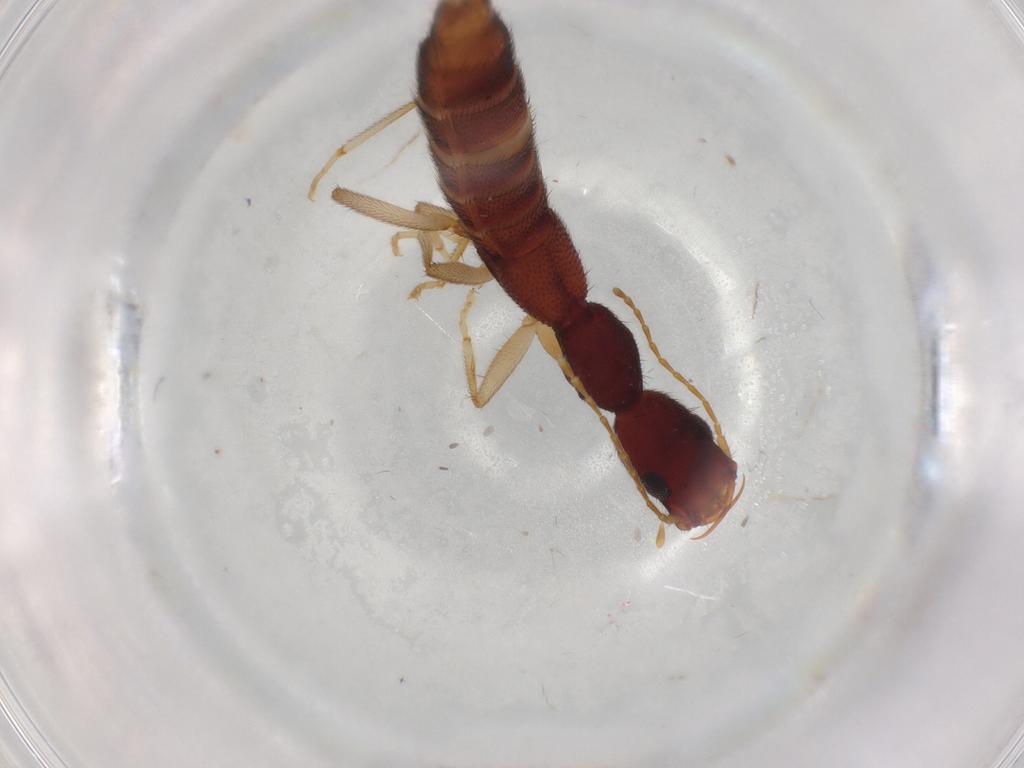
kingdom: Animalia
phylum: Arthropoda
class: Insecta
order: Coleoptera
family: Staphylinidae
